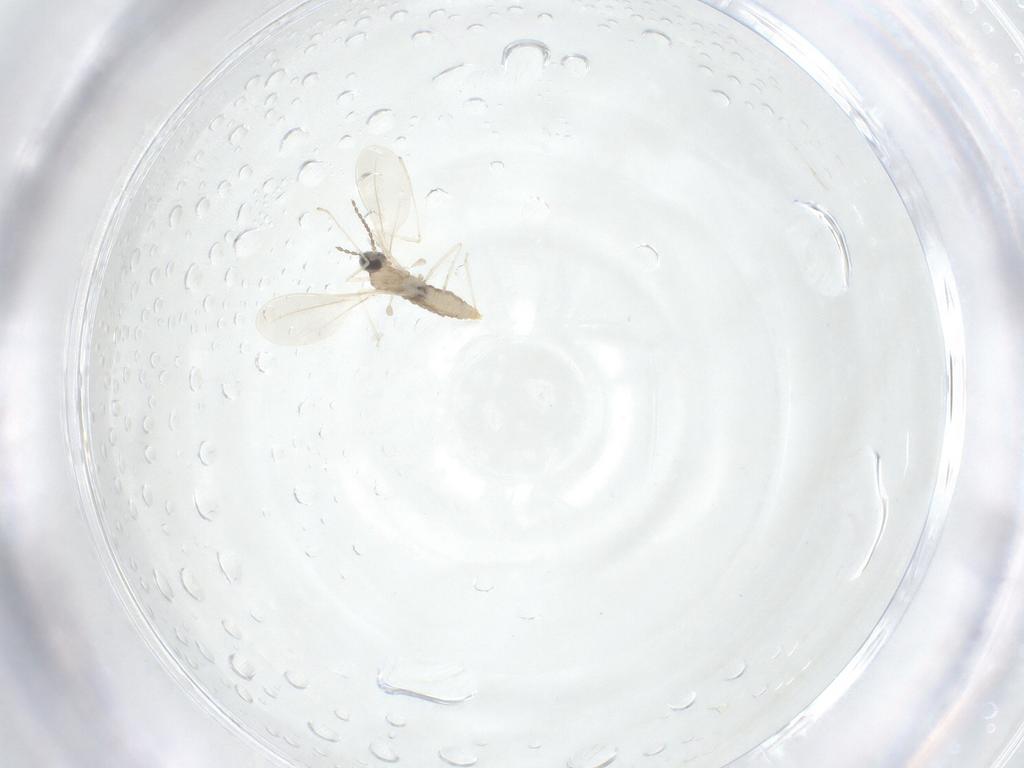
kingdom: Animalia
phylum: Arthropoda
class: Insecta
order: Diptera
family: Cecidomyiidae
